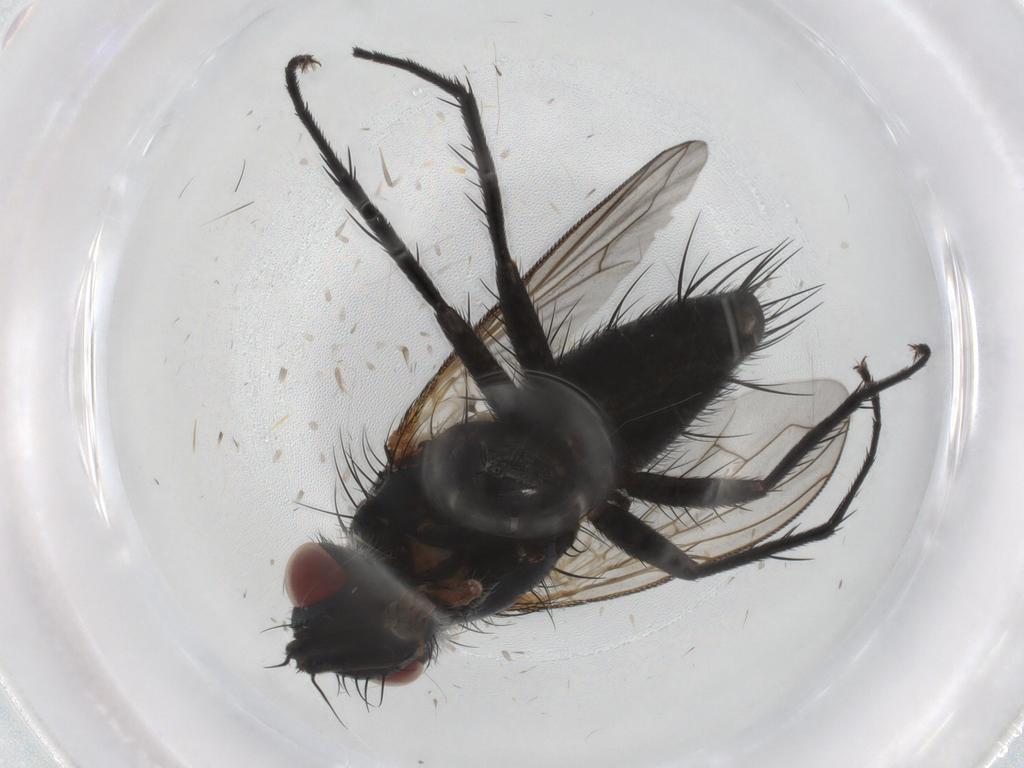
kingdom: Animalia
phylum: Arthropoda
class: Insecta
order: Diptera
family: Tachinidae
